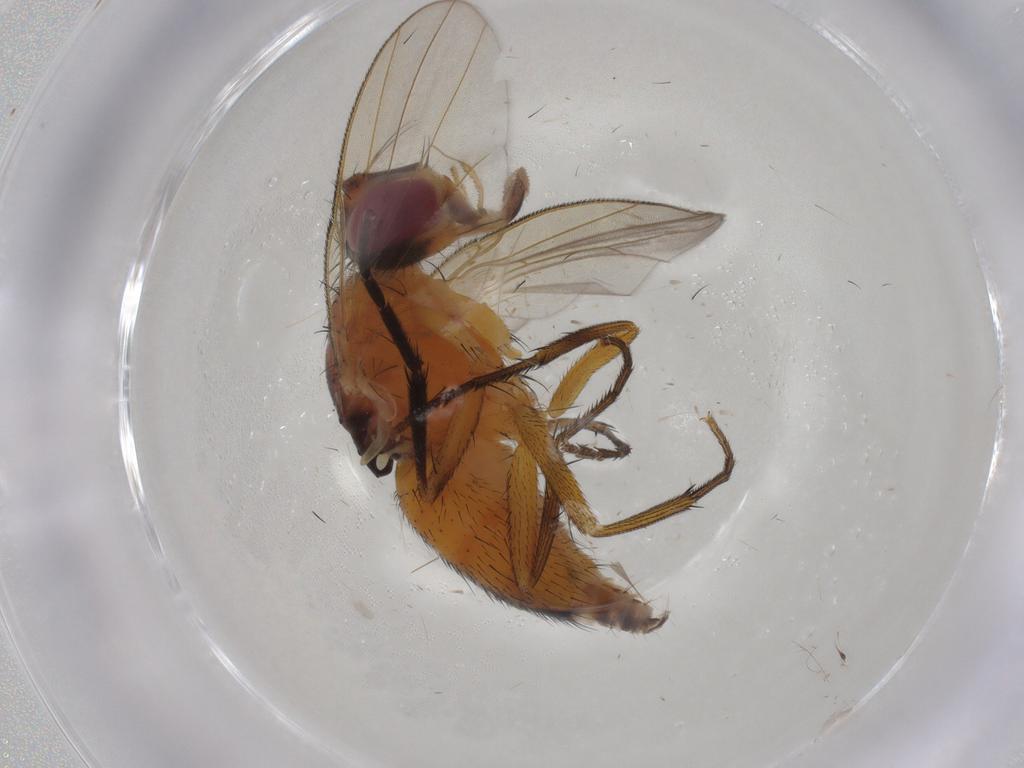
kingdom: Animalia
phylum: Arthropoda
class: Insecta
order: Diptera
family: Muscidae
